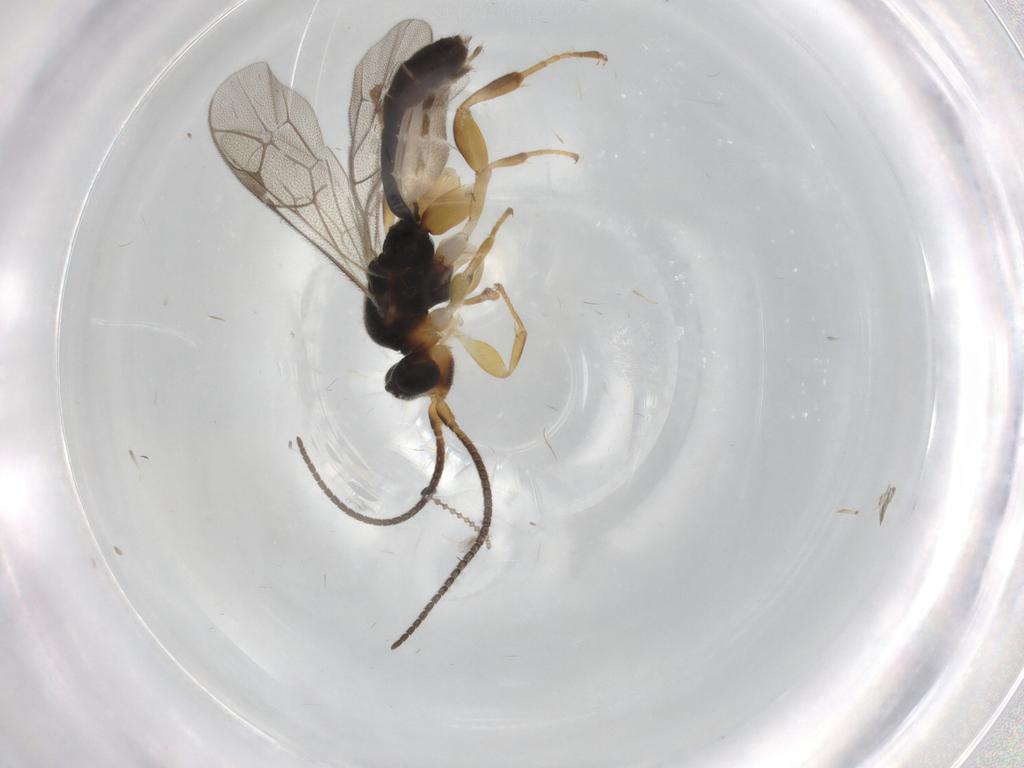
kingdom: Animalia
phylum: Arthropoda
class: Insecta
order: Hymenoptera
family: Ichneumonidae
